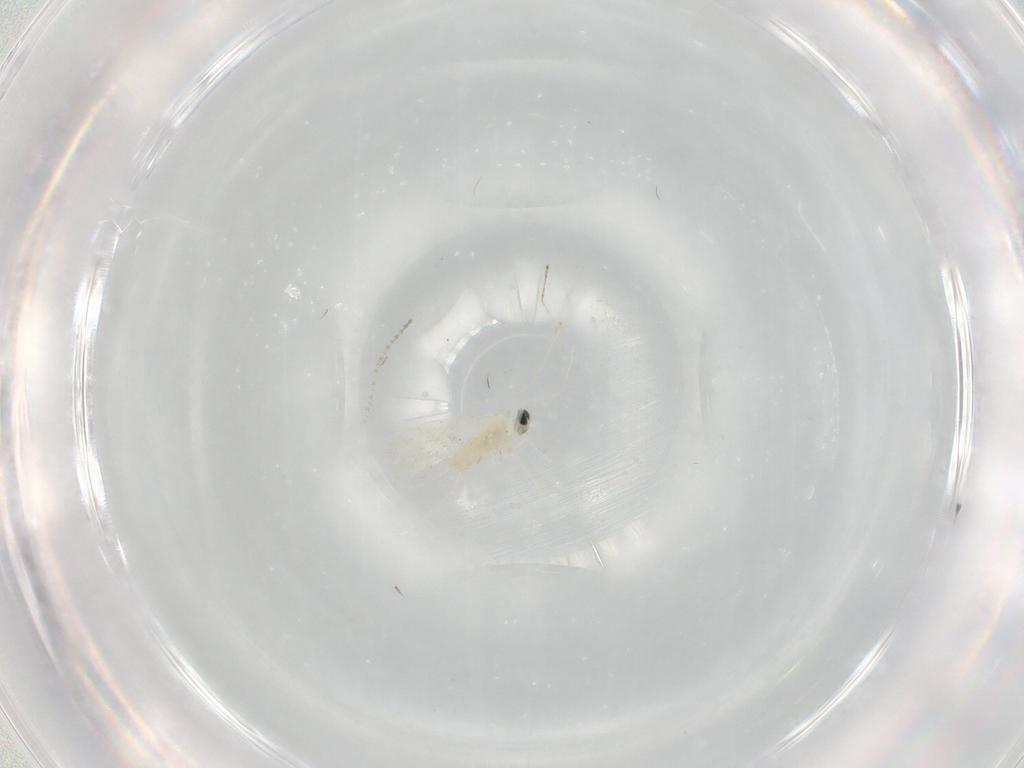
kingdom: Animalia
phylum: Arthropoda
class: Insecta
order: Diptera
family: Cecidomyiidae
